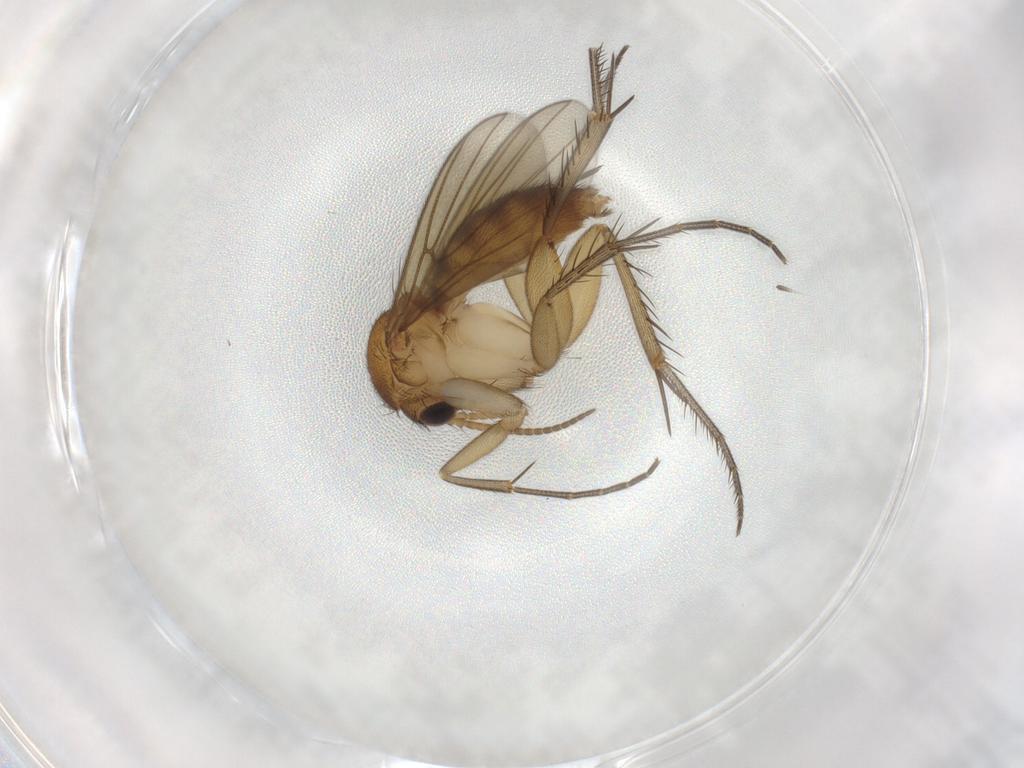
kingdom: Animalia
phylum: Arthropoda
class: Insecta
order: Diptera
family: Mycetophilidae
